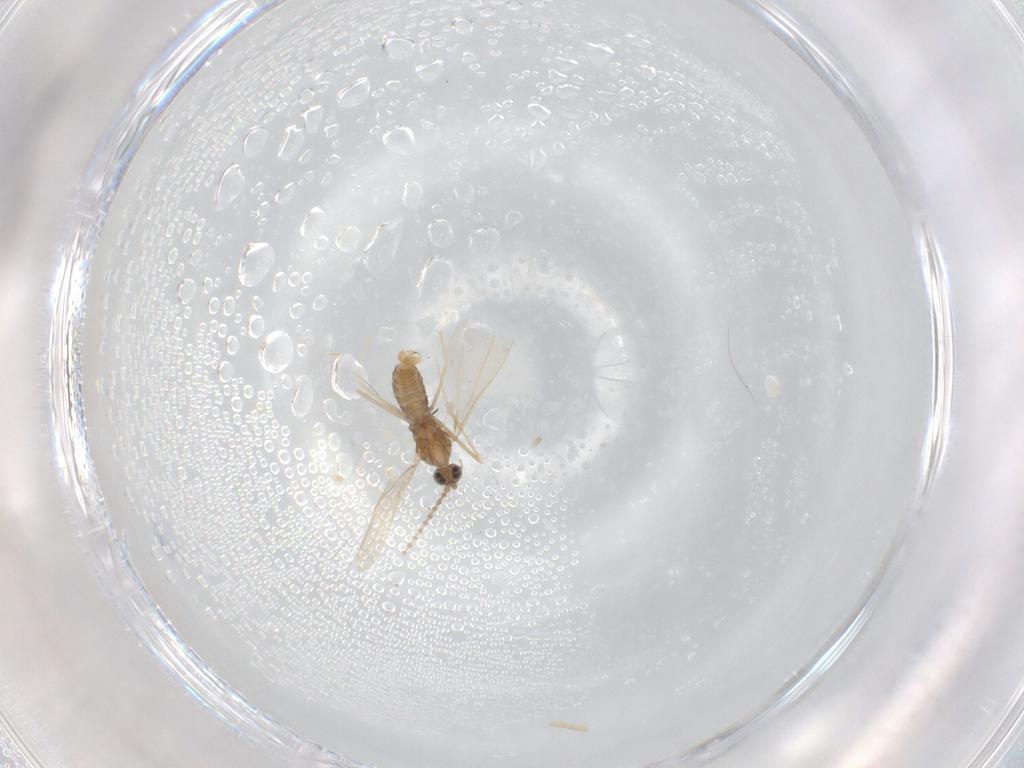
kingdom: Animalia
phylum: Arthropoda
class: Insecta
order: Diptera
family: Cecidomyiidae
